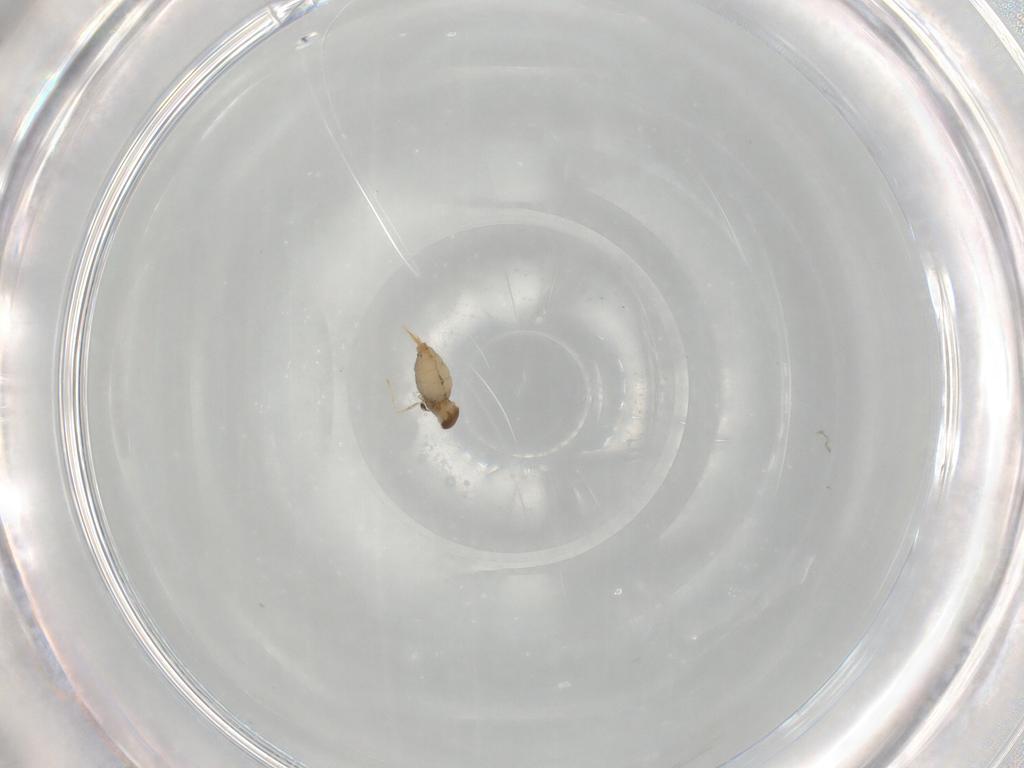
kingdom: Animalia
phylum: Arthropoda
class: Insecta
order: Diptera
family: Cecidomyiidae
